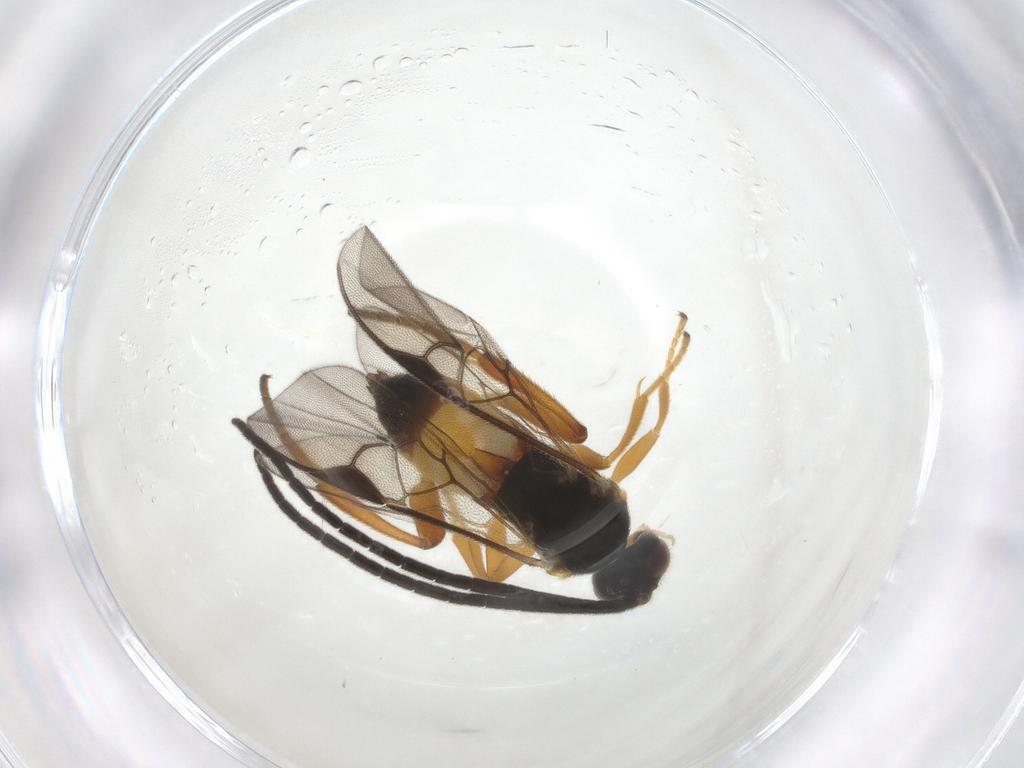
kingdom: Animalia
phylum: Arthropoda
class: Insecta
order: Hymenoptera
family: Braconidae
